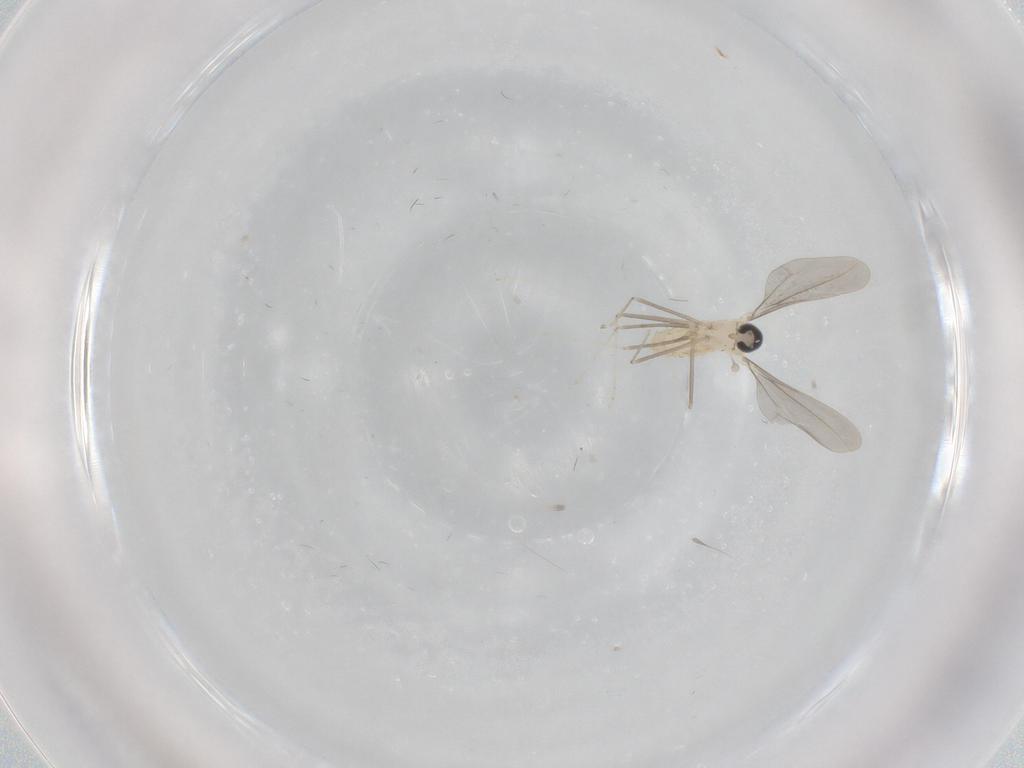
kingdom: Animalia
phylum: Arthropoda
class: Insecta
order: Diptera
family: Cecidomyiidae
